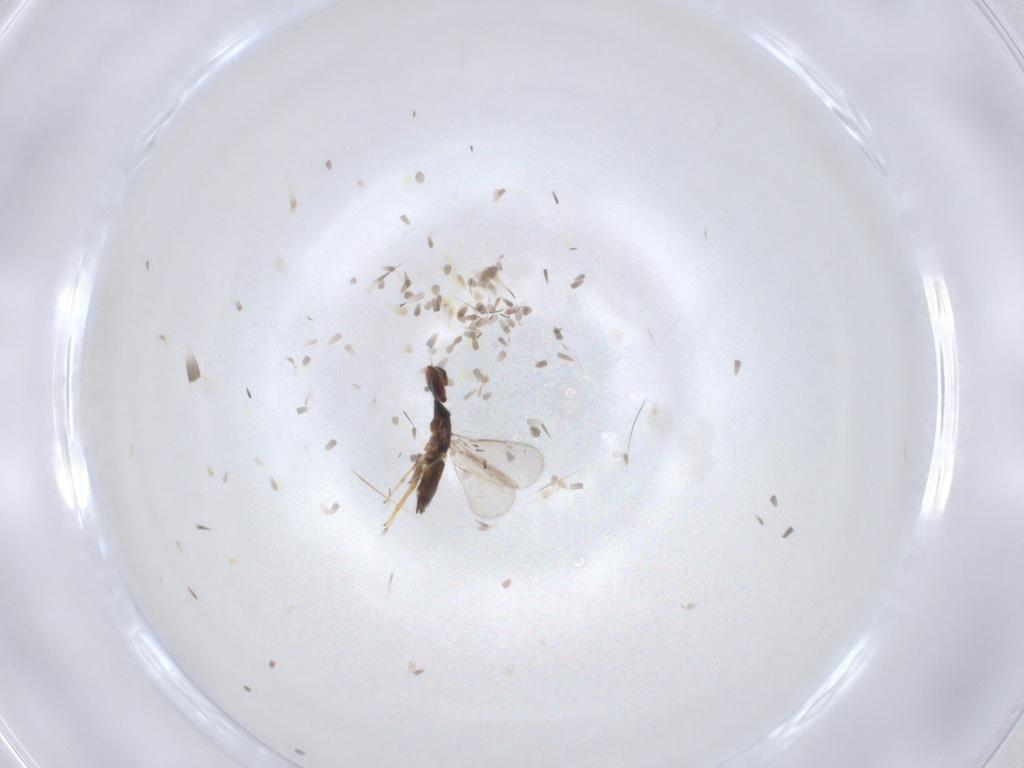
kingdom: Animalia
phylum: Arthropoda
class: Insecta
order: Hymenoptera
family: Eulophidae
